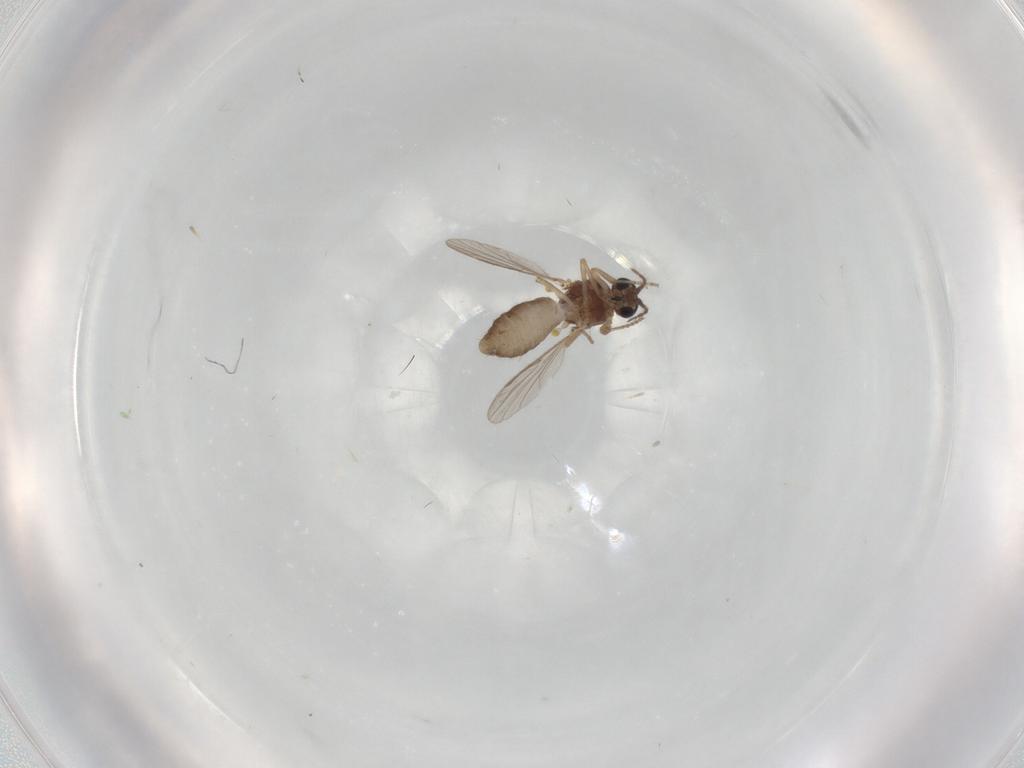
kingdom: Animalia
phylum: Arthropoda
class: Insecta
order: Diptera
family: Ceratopogonidae
